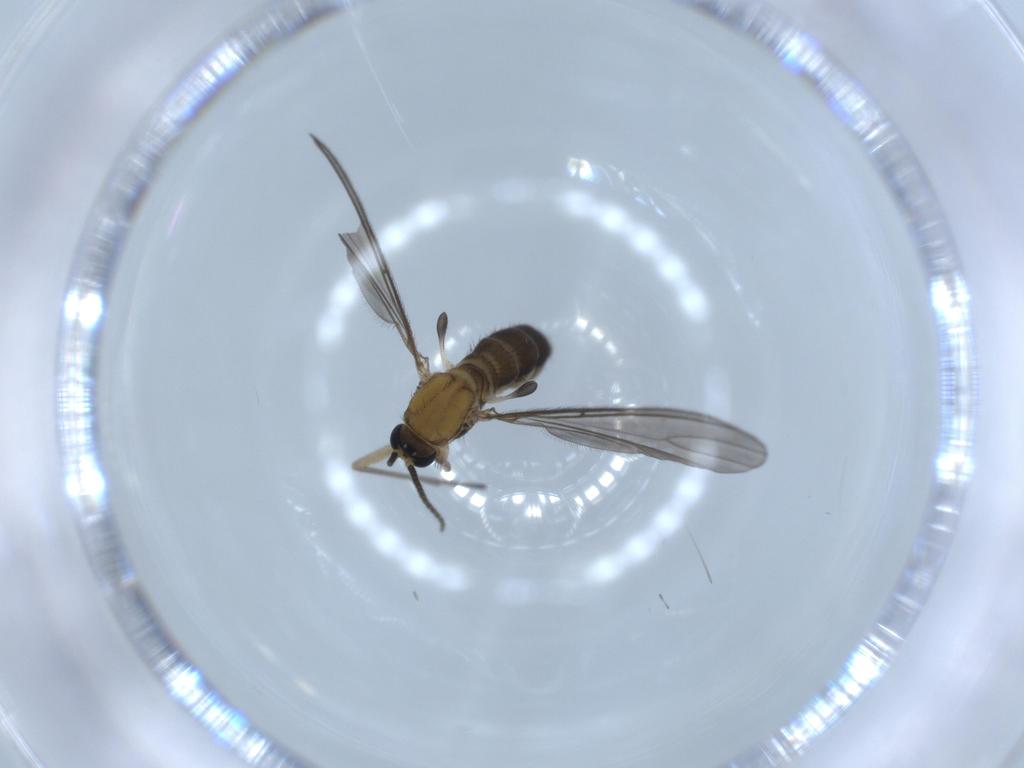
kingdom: Animalia
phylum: Arthropoda
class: Insecta
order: Diptera
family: Sciaridae
